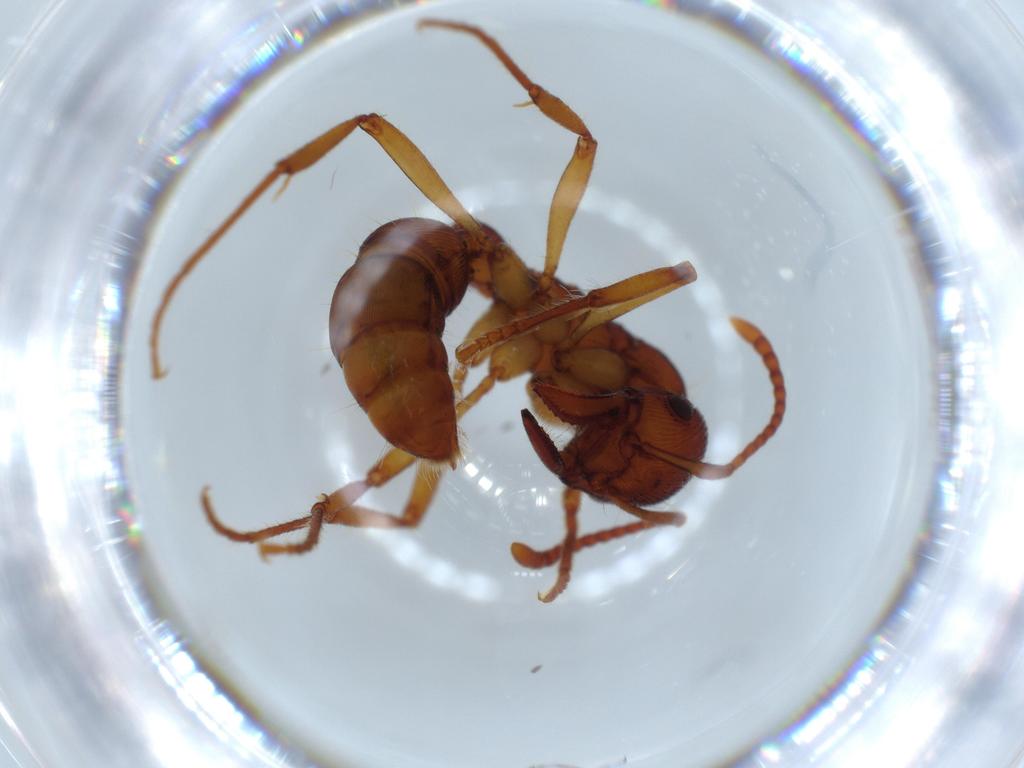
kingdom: Animalia
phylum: Arthropoda
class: Insecta
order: Hymenoptera
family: Formicidae
